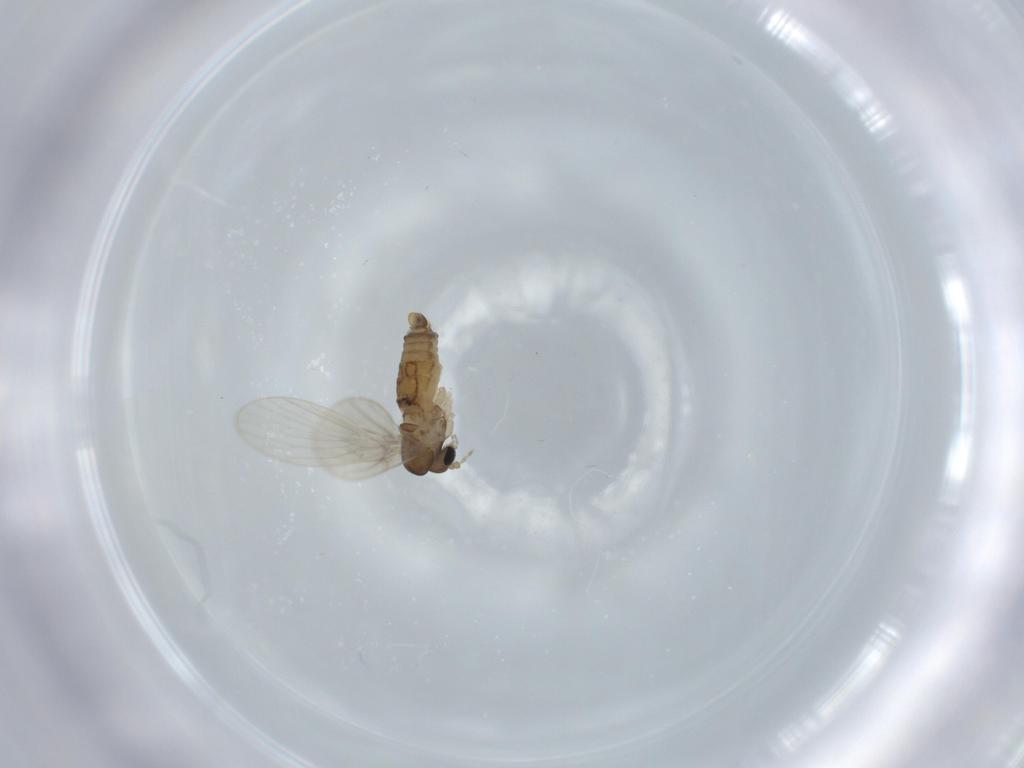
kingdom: Animalia
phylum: Arthropoda
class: Insecta
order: Diptera
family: Psychodidae
